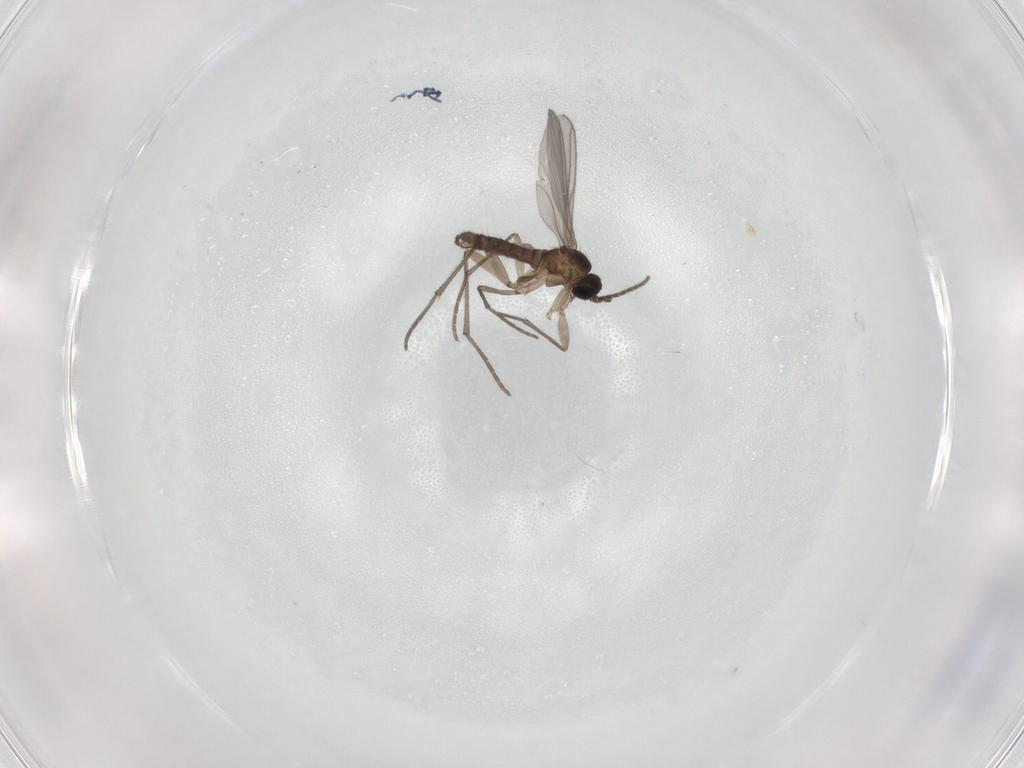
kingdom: Animalia
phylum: Arthropoda
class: Insecta
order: Diptera
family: Sciaridae
